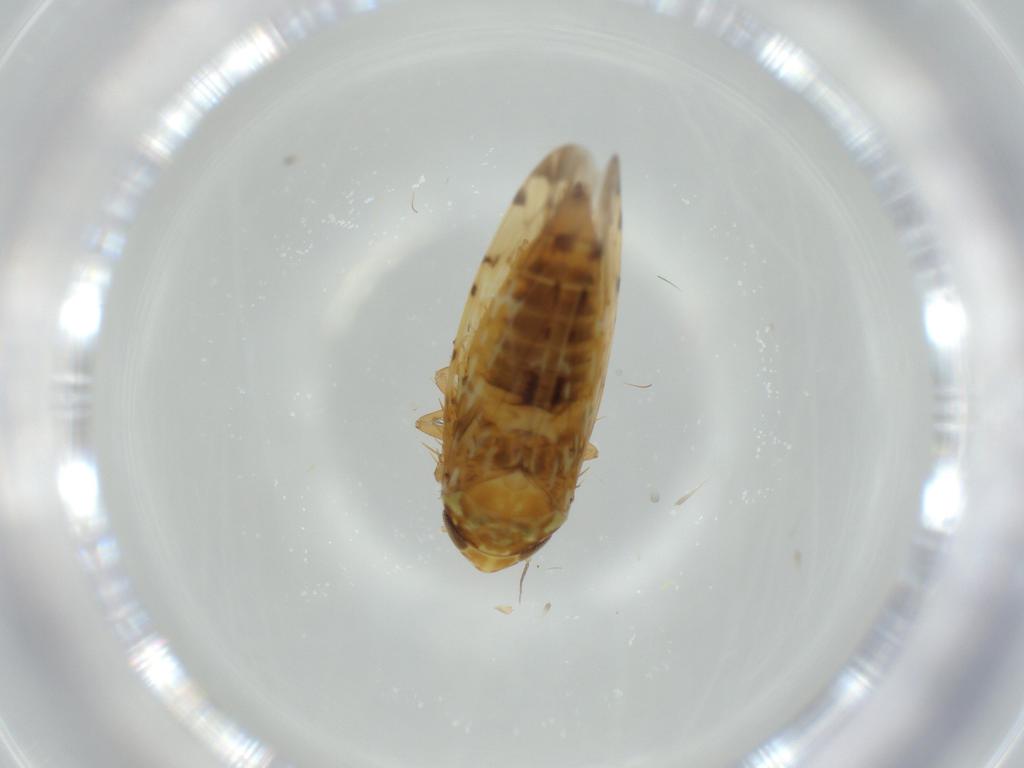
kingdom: Animalia
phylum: Arthropoda
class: Insecta
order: Hemiptera
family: Cicadellidae
